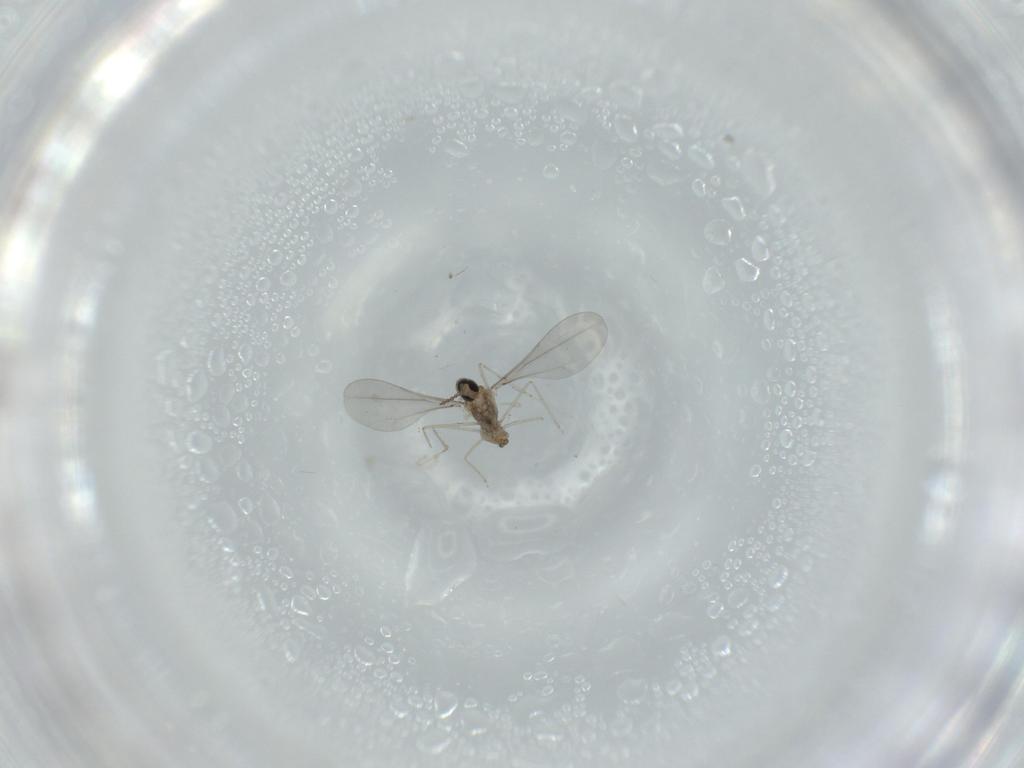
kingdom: Animalia
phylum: Arthropoda
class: Insecta
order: Diptera
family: Cecidomyiidae
